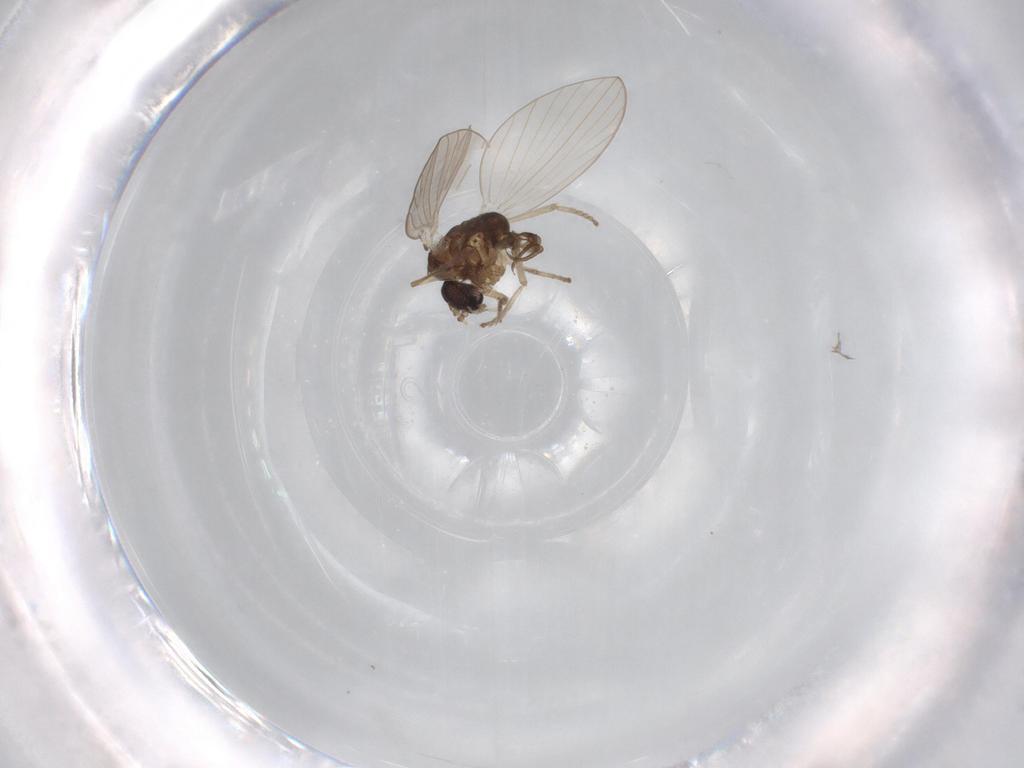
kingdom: Animalia
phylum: Arthropoda
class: Insecta
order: Diptera
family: Psychodidae
